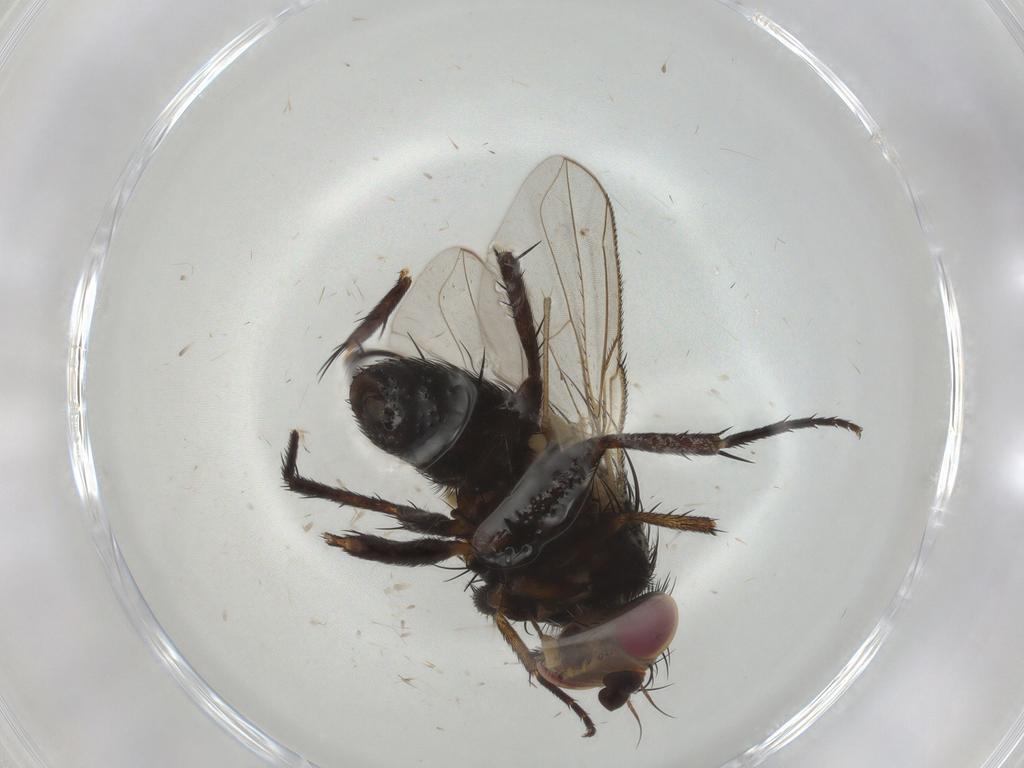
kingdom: Animalia
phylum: Arthropoda
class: Insecta
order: Diptera
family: Tachinidae
